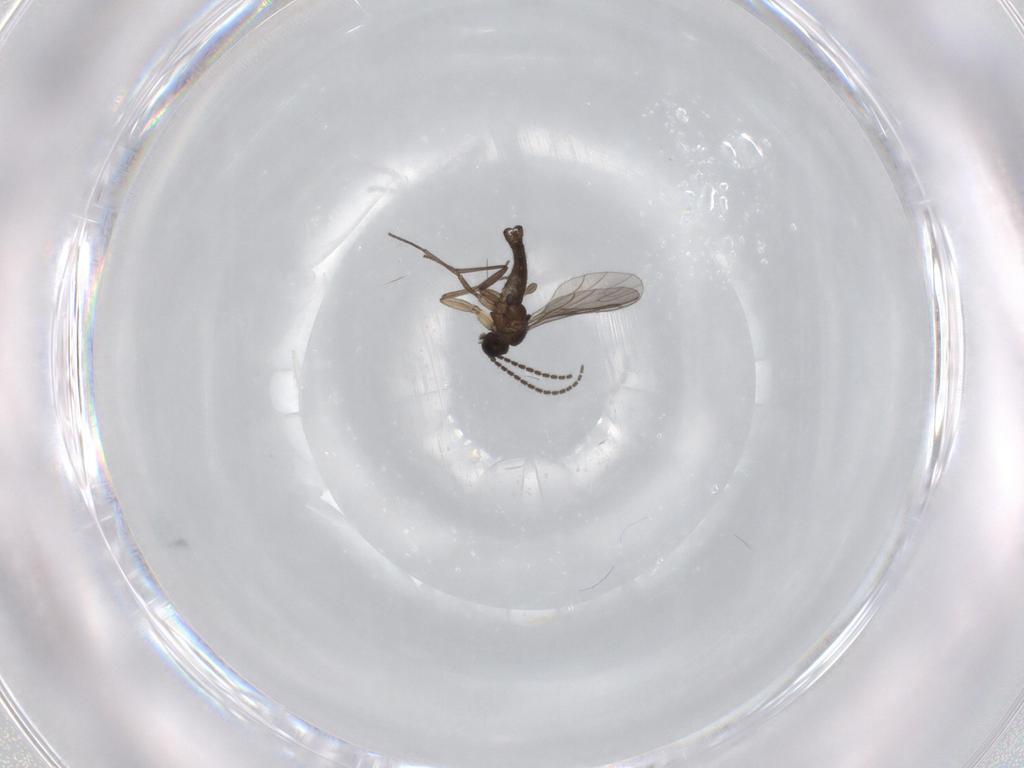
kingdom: Animalia
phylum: Arthropoda
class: Insecta
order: Diptera
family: Sciaridae
